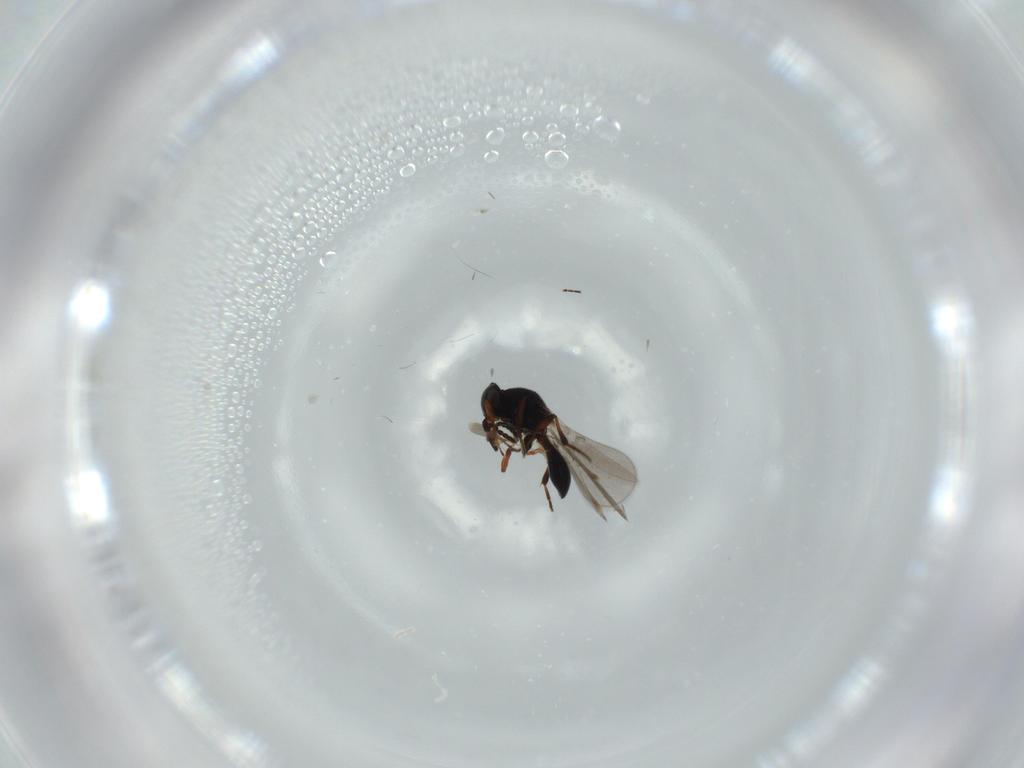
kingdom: Animalia
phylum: Arthropoda
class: Insecta
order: Hymenoptera
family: Platygastridae
